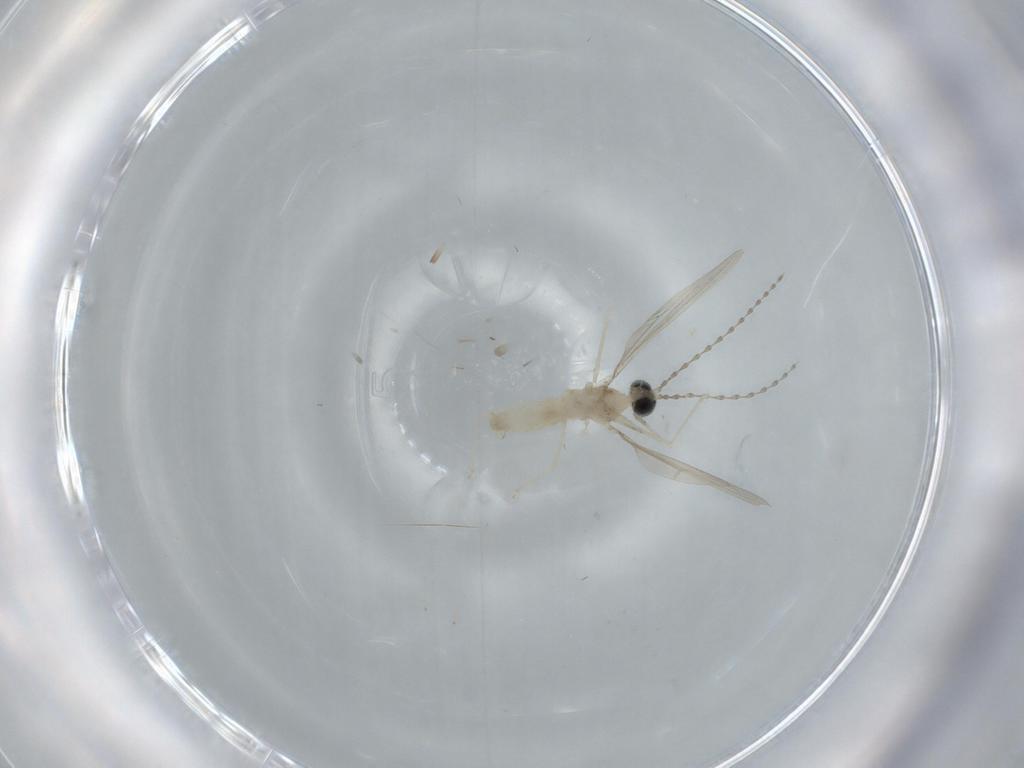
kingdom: Animalia
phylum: Arthropoda
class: Insecta
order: Diptera
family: Cecidomyiidae
